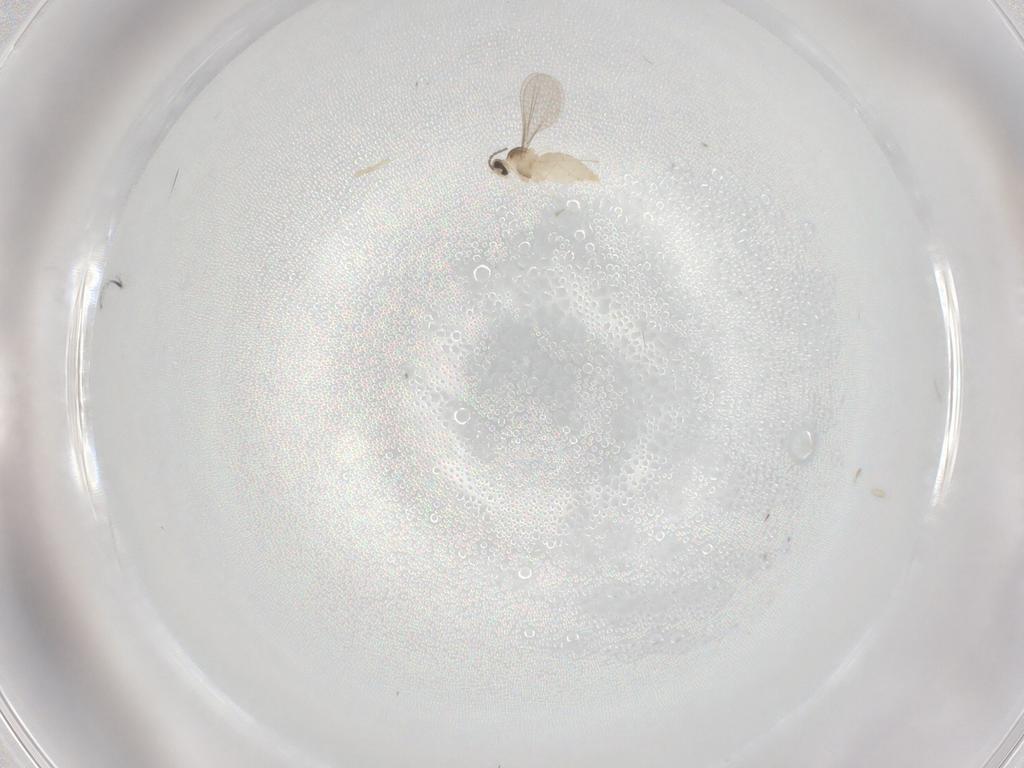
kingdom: Animalia
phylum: Arthropoda
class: Insecta
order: Diptera
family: Cecidomyiidae
